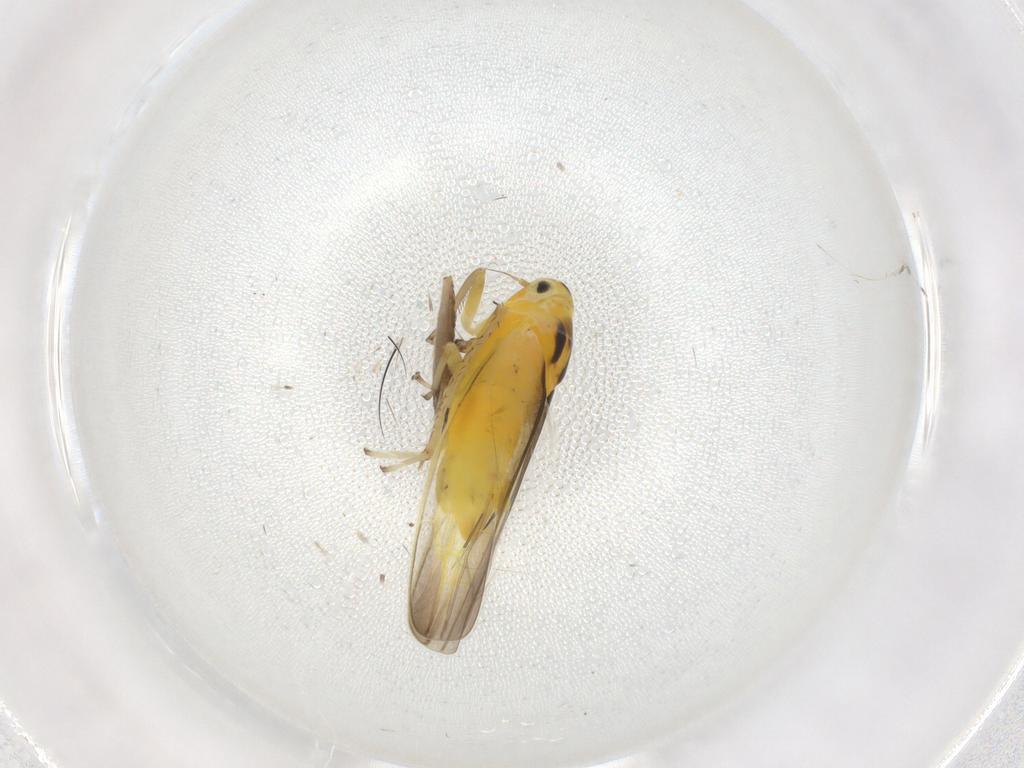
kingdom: Animalia
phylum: Arthropoda
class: Insecta
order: Hemiptera
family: Cicadellidae
